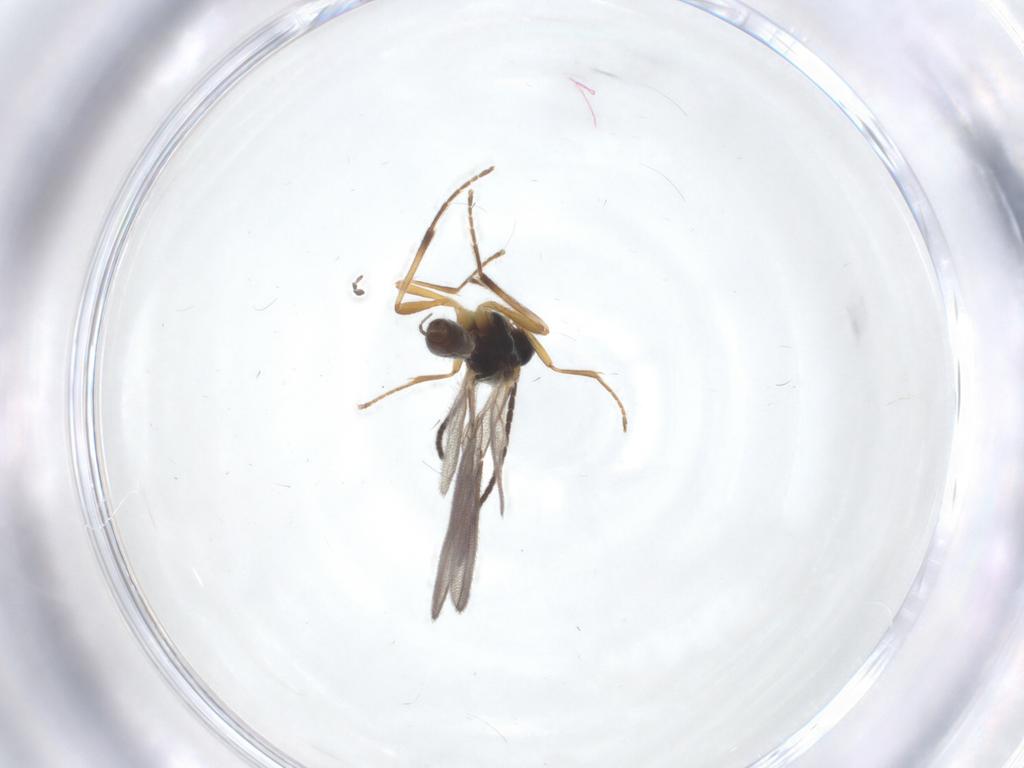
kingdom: Animalia
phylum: Arthropoda
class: Insecta
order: Hymenoptera
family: Braconidae
